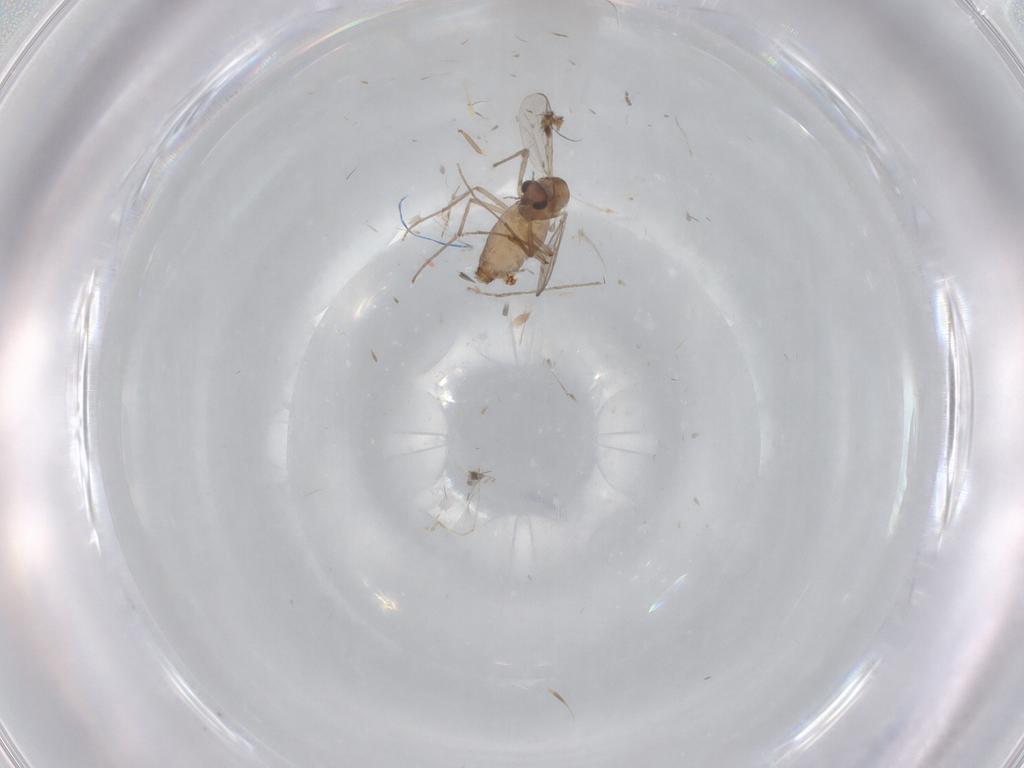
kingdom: Animalia
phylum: Arthropoda
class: Insecta
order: Diptera
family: Chironomidae
